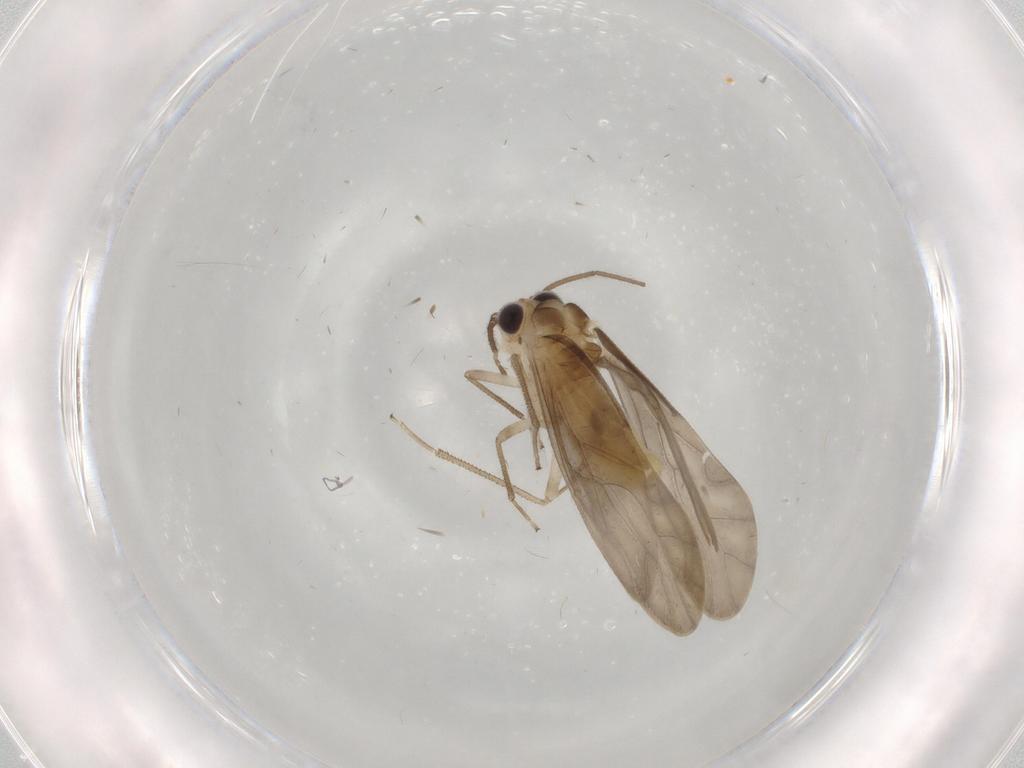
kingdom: Animalia
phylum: Arthropoda
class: Insecta
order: Psocodea
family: Caeciliusidae
